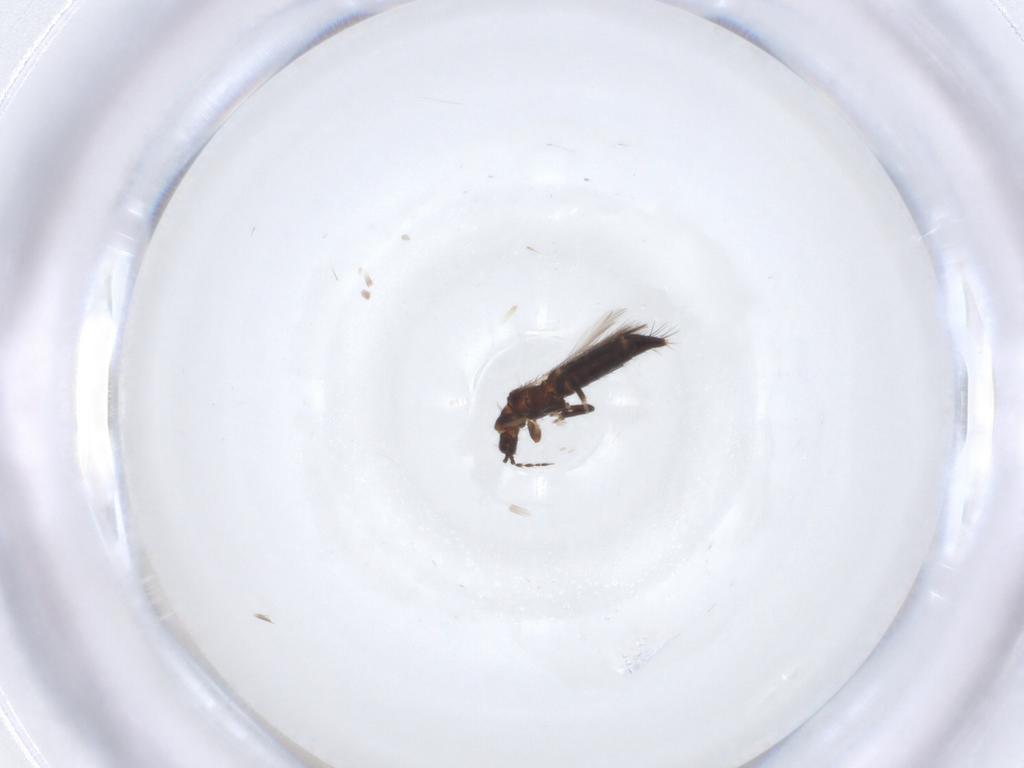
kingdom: Animalia
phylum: Arthropoda
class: Insecta
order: Thysanoptera
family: Thripidae
